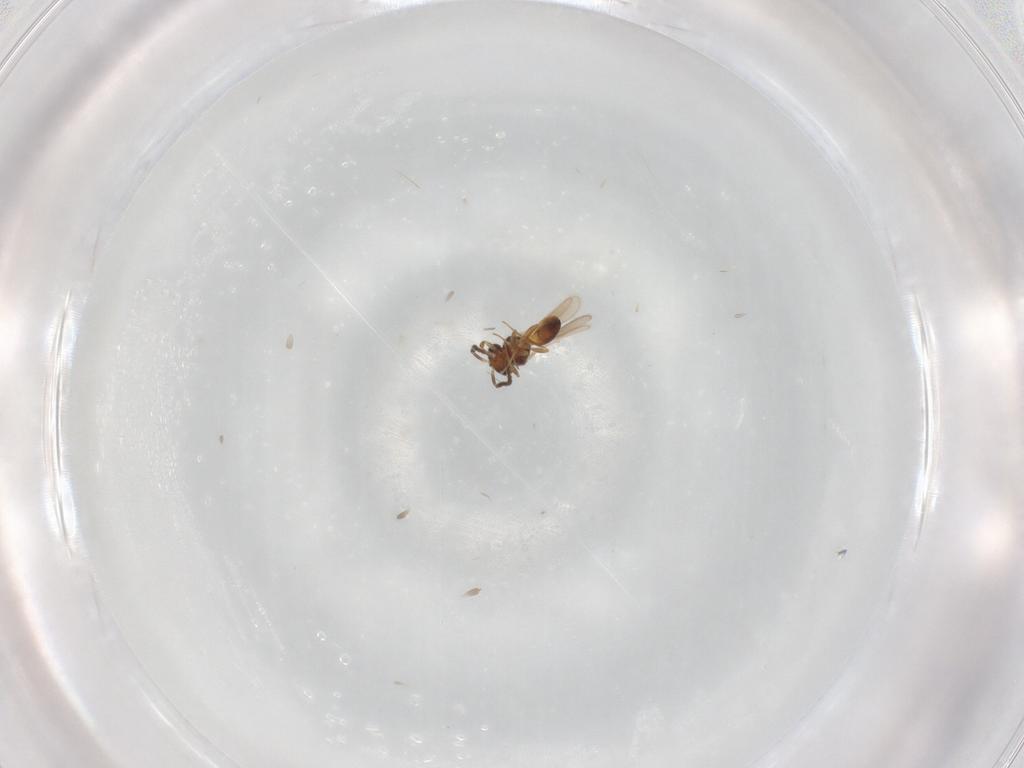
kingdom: Animalia
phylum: Arthropoda
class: Insecta
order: Hymenoptera
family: Scelionidae
